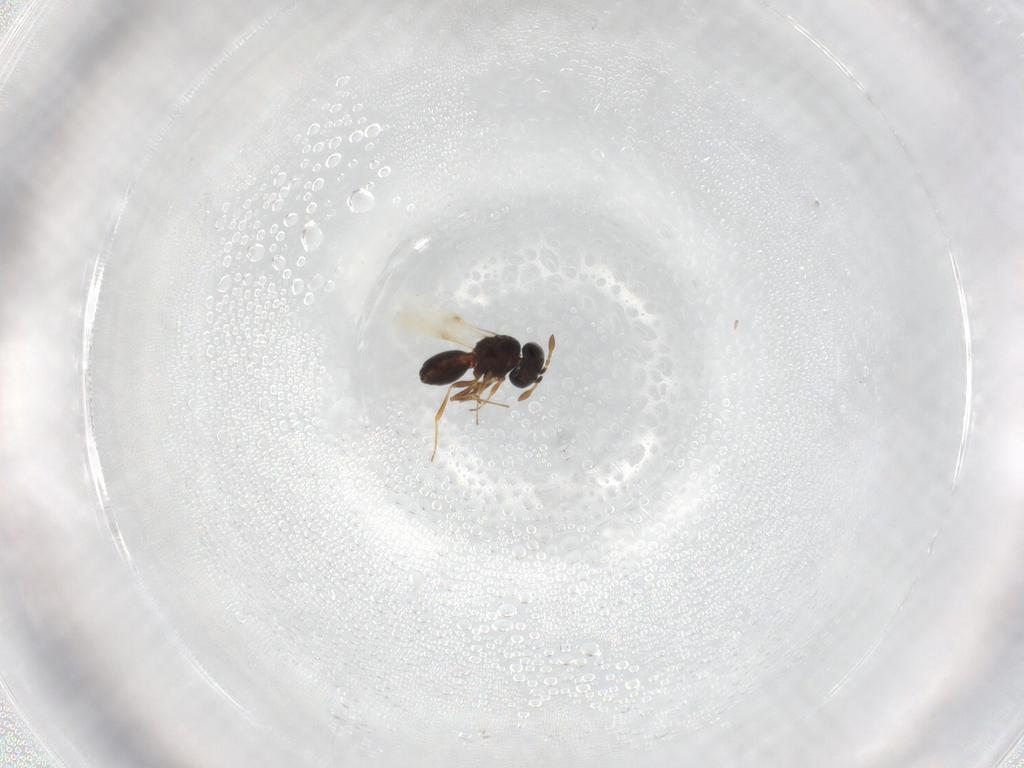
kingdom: Animalia
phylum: Arthropoda
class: Insecta
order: Hymenoptera
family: Scelionidae
